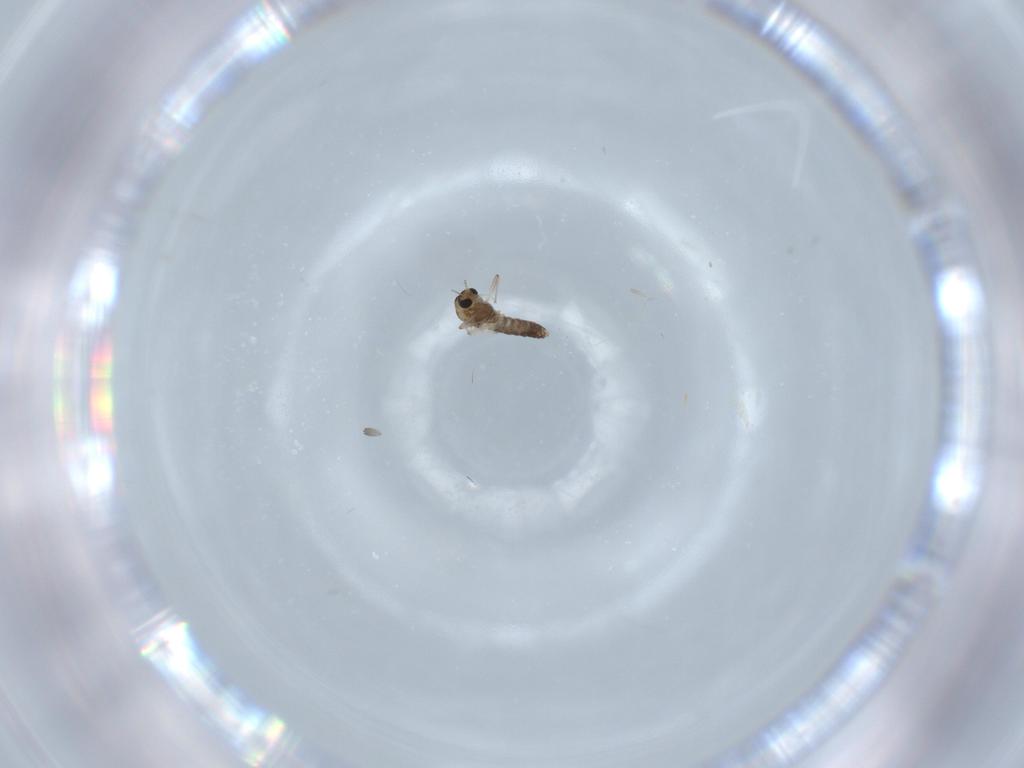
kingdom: Animalia
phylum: Arthropoda
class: Insecta
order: Diptera
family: Chironomidae
